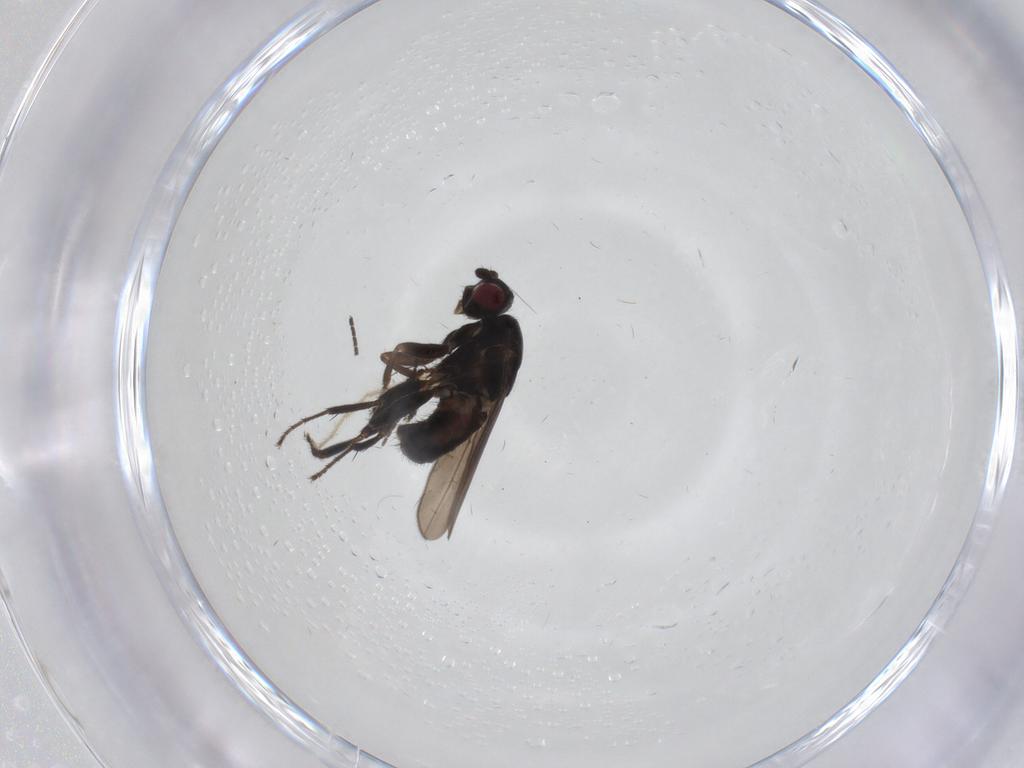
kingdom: Animalia
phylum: Arthropoda
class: Insecta
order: Diptera
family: Sphaeroceridae
